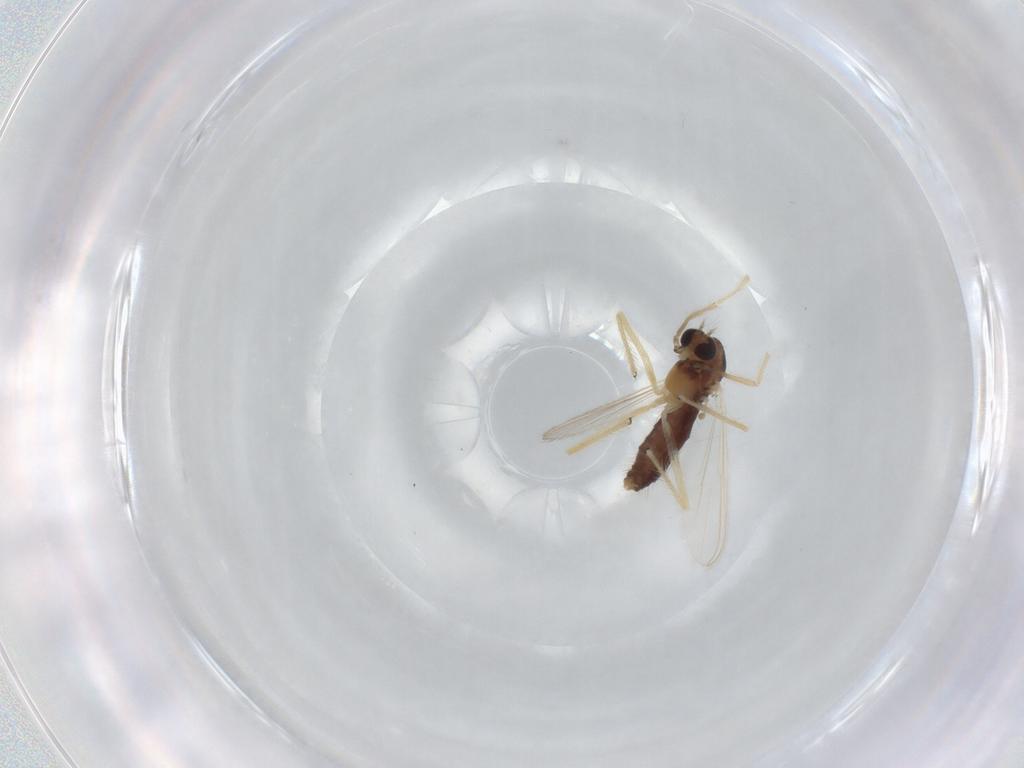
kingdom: Animalia
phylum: Arthropoda
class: Insecta
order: Diptera
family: Chironomidae
